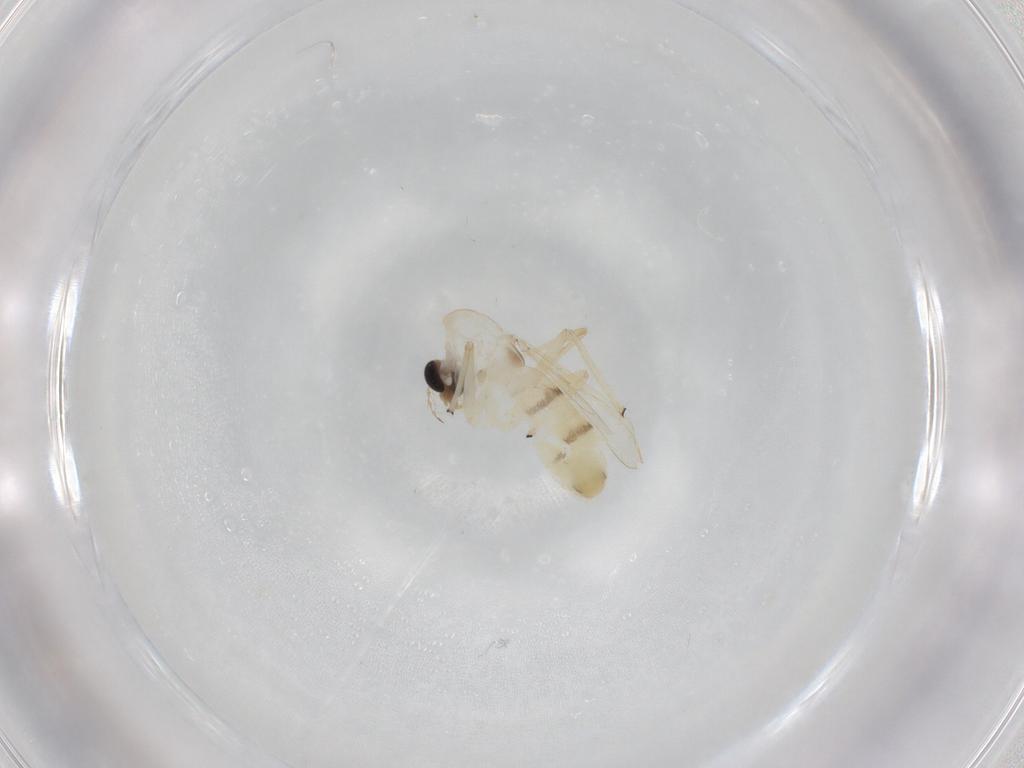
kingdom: Animalia
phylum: Arthropoda
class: Insecta
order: Diptera
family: Chironomidae
